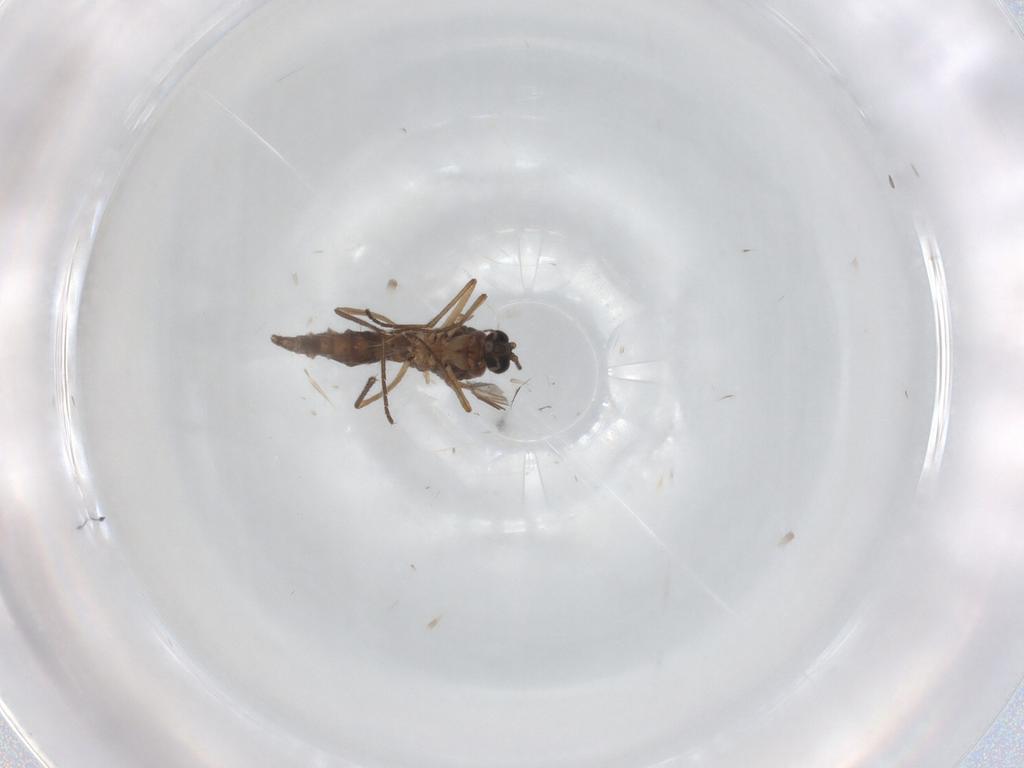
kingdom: Animalia
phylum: Arthropoda
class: Insecta
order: Diptera
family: Sciaridae
